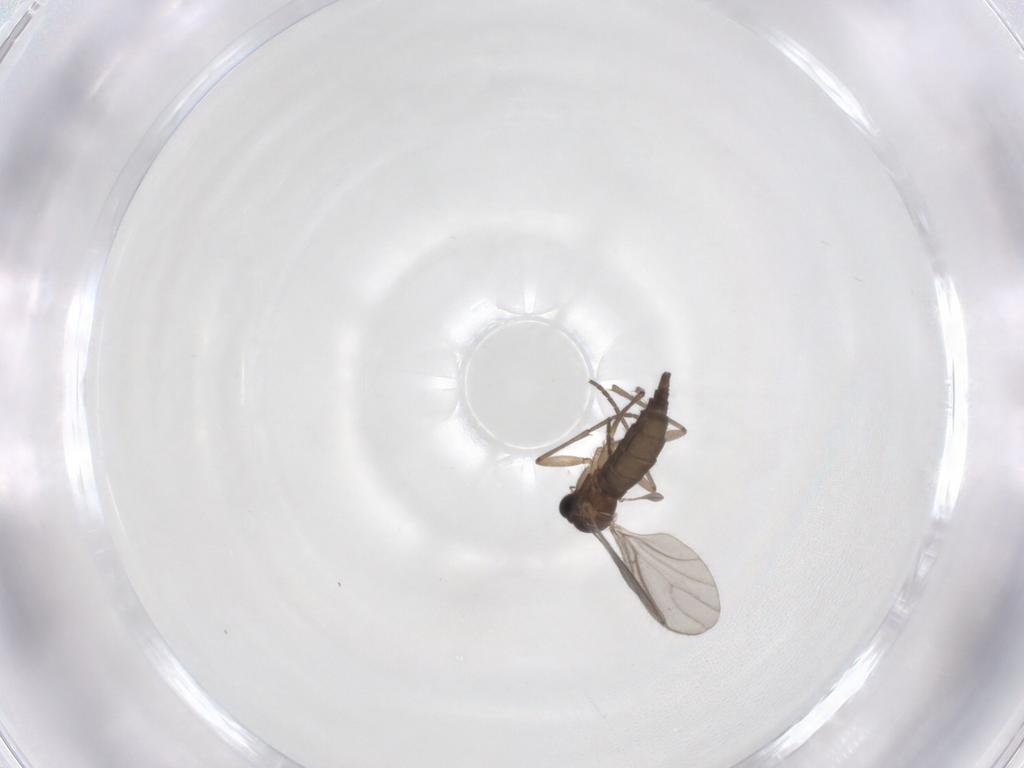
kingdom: Animalia
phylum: Arthropoda
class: Insecta
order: Diptera
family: Sciaridae
